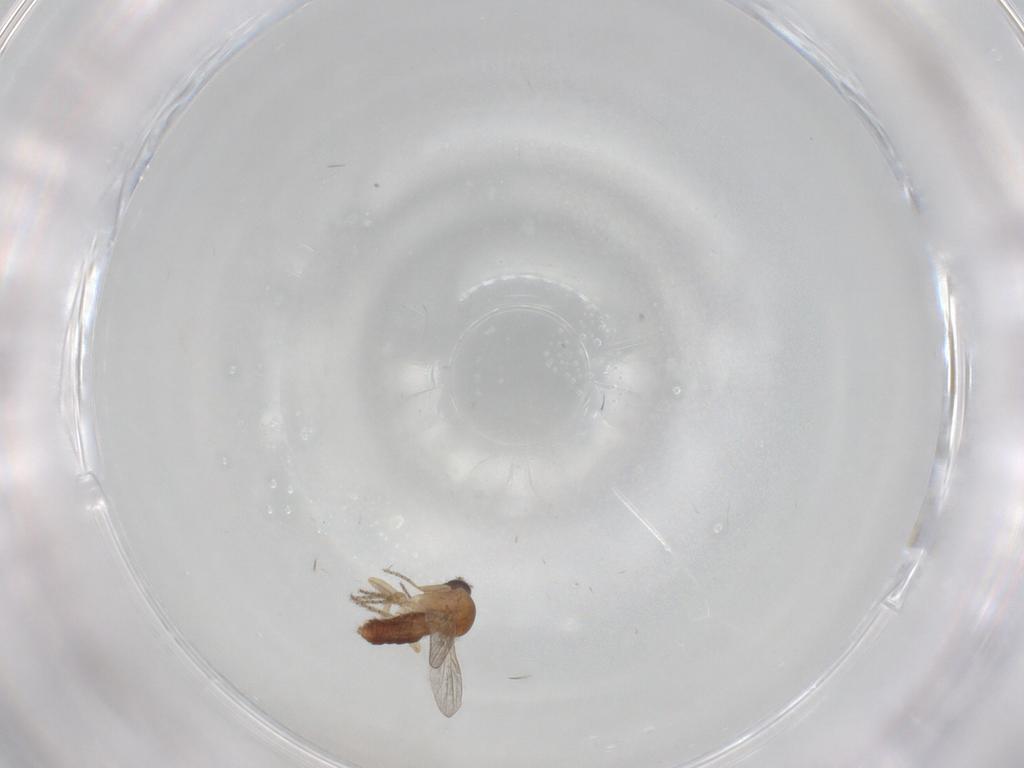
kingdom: Animalia
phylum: Arthropoda
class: Insecta
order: Diptera
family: Ceratopogonidae
